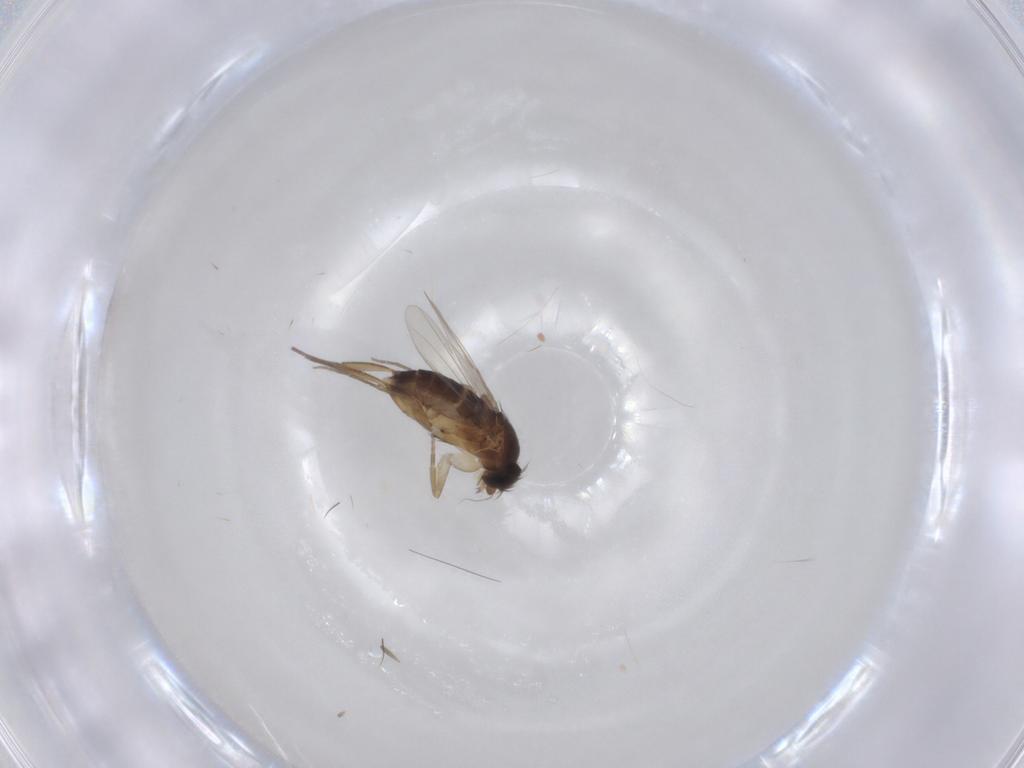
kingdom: Animalia
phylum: Arthropoda
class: Insecta
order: Diptera
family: Phoridae
